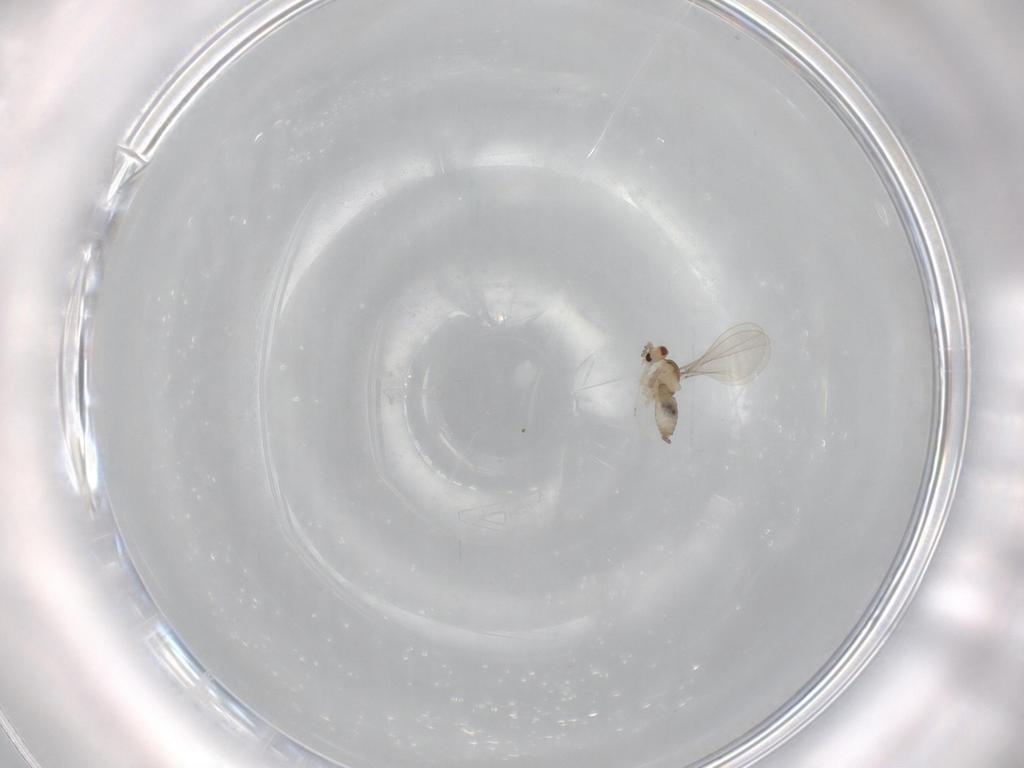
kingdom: Animalia
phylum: Arthropoda
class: Insecta
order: Diptera
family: Cecidomyiidae
